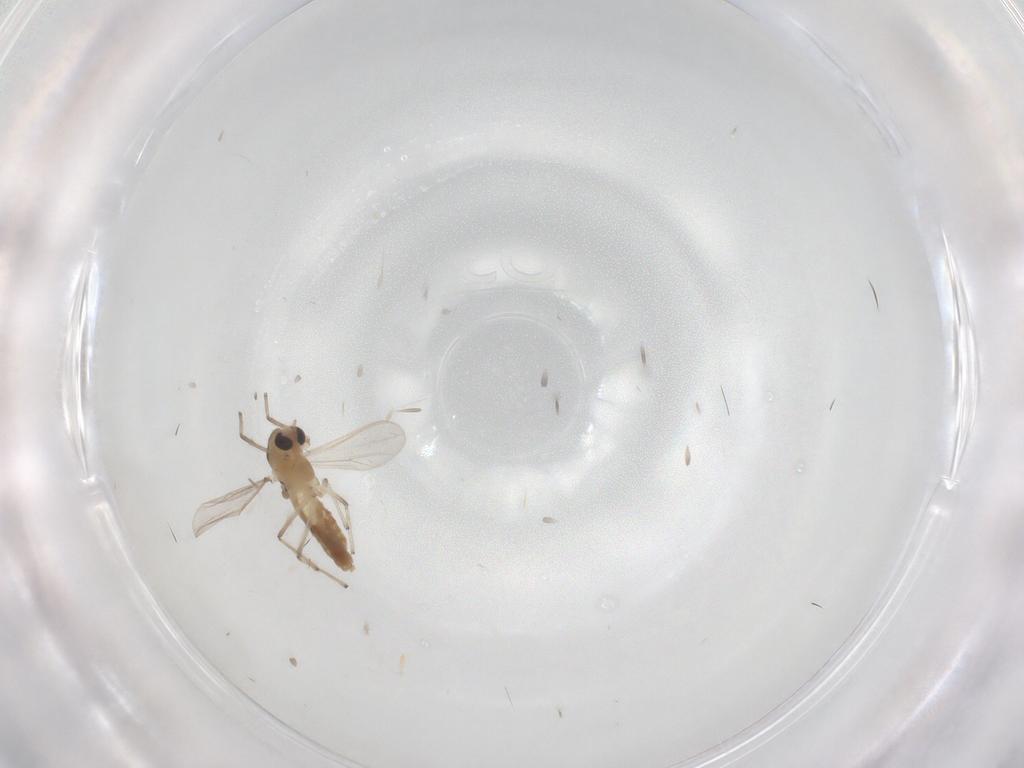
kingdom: Animalia
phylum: Arthropoda
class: Insecta
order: Diptera
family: Chironomidae
